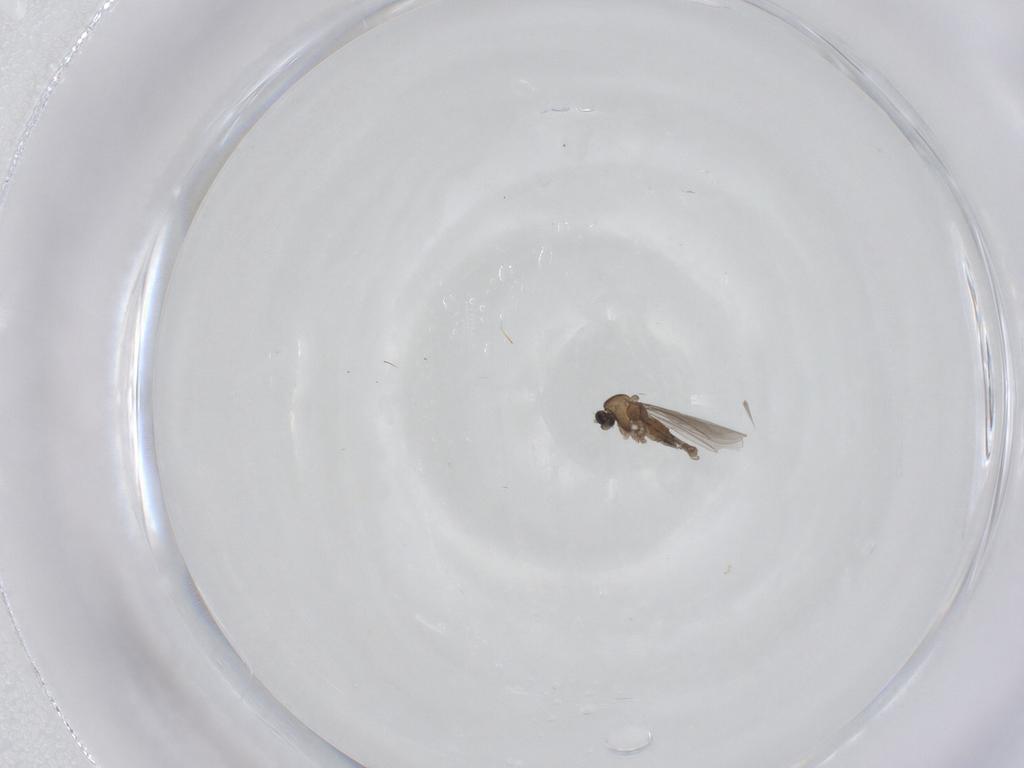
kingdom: Animalia
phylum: Arthropoda
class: Insecta
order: Diptera
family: Cecidomyiidae
